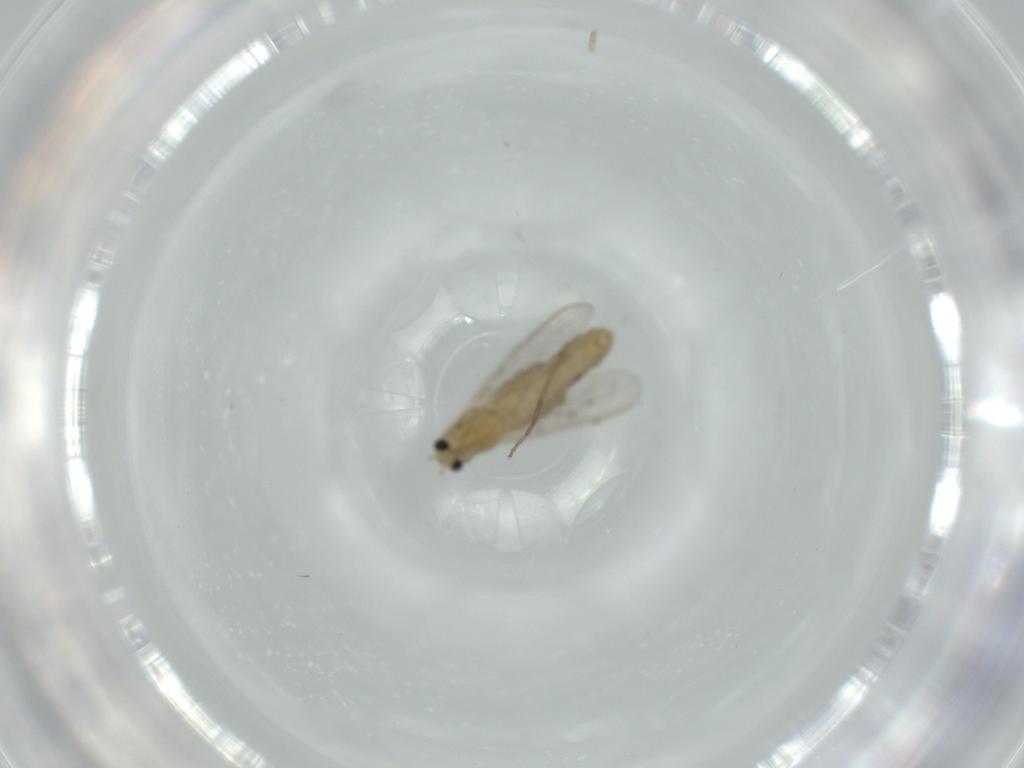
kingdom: Animalia
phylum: Arthropoda
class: Insecta
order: Diptera
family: Chironomidae
